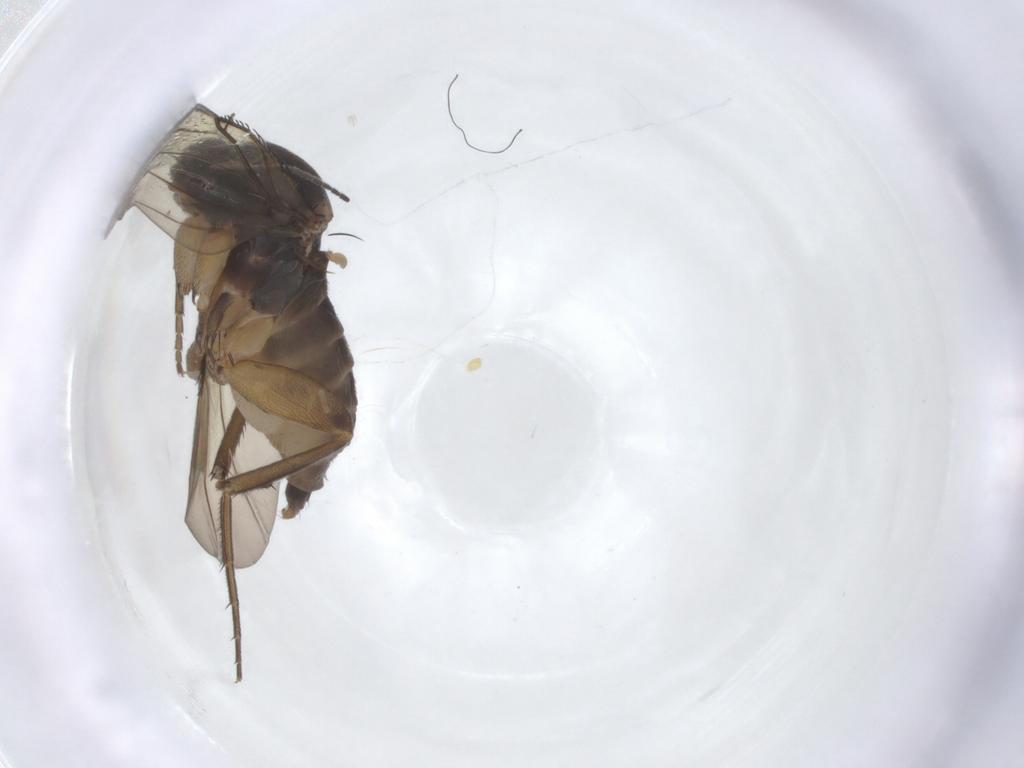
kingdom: Animalia
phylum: Arthropoda
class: Insecta
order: Diptera
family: Phoridae
